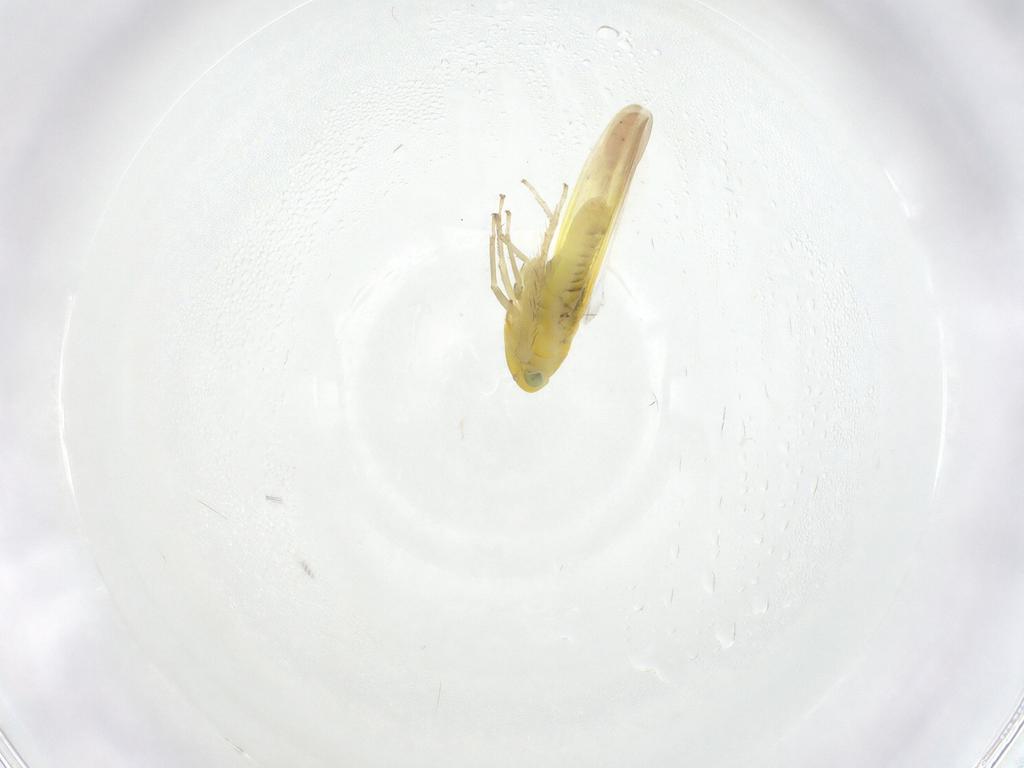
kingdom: Animalia
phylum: Arthropoda
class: Insecta
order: Hemiptera
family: Cicadellidae
